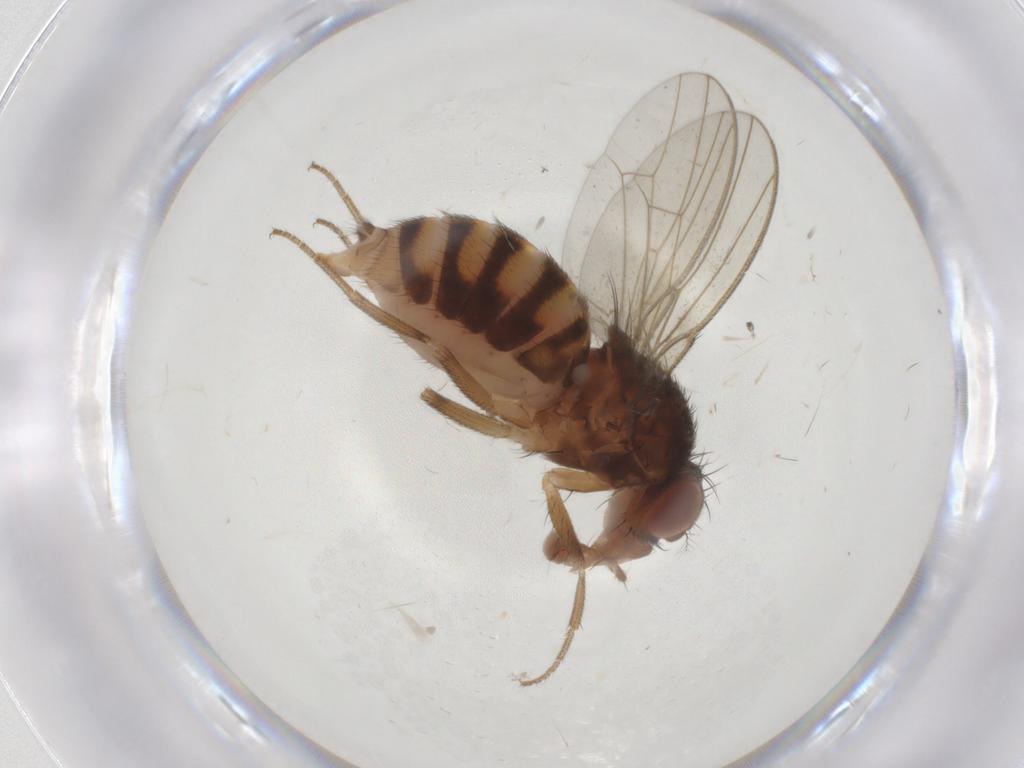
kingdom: Animalia
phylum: Arthropoda
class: Insecta
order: Diptera
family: Drosophilidae
